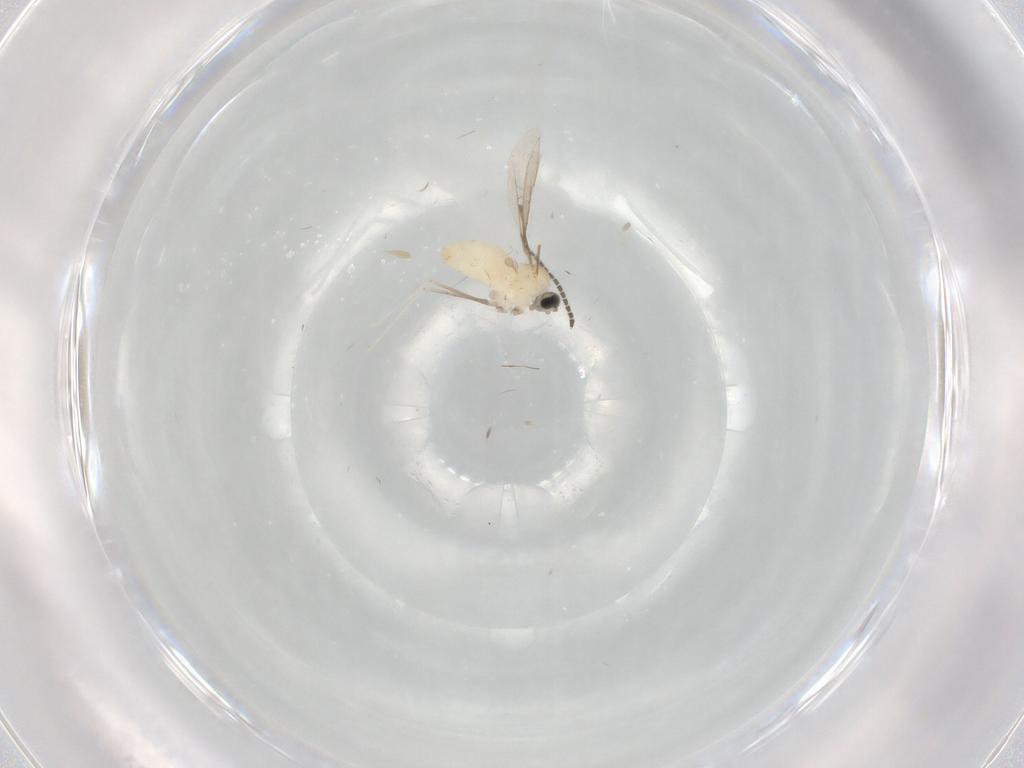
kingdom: Animalia
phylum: Arthropoda
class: Insecta
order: Diptera
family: Cecidomyiidae
